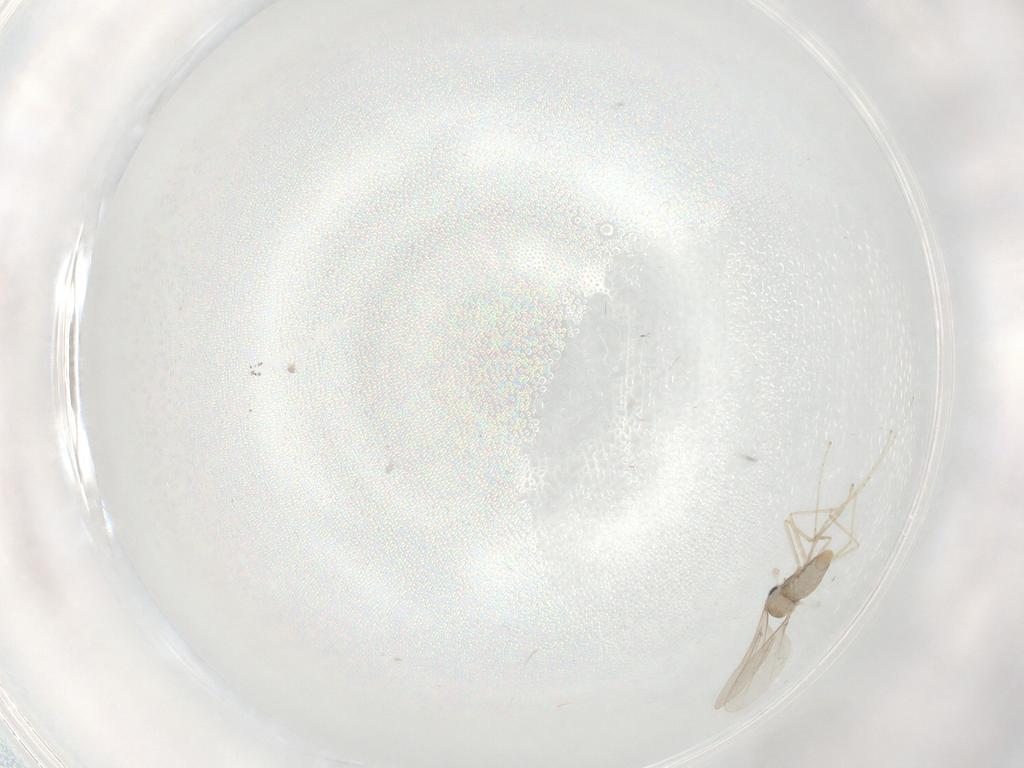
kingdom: Animalia
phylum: Arthropoda
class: Insecta
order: Diptera
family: Cecidomyiidae
